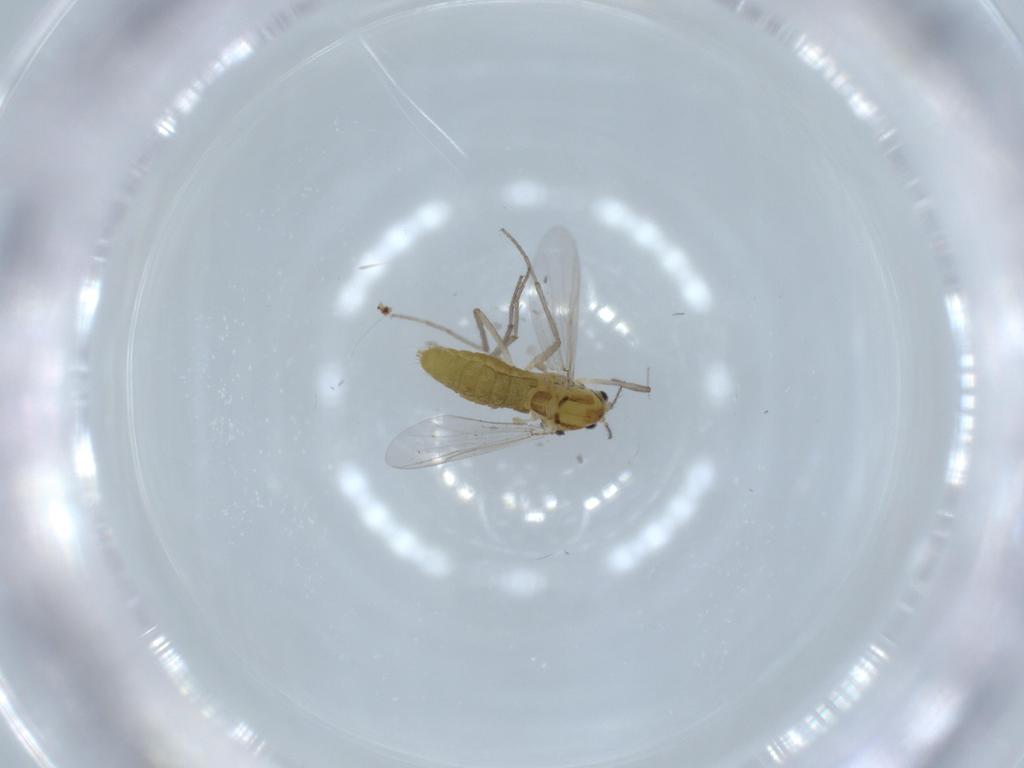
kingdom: Animalia
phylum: Arthropoda
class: Insecta
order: Diptera
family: Chironomidae
